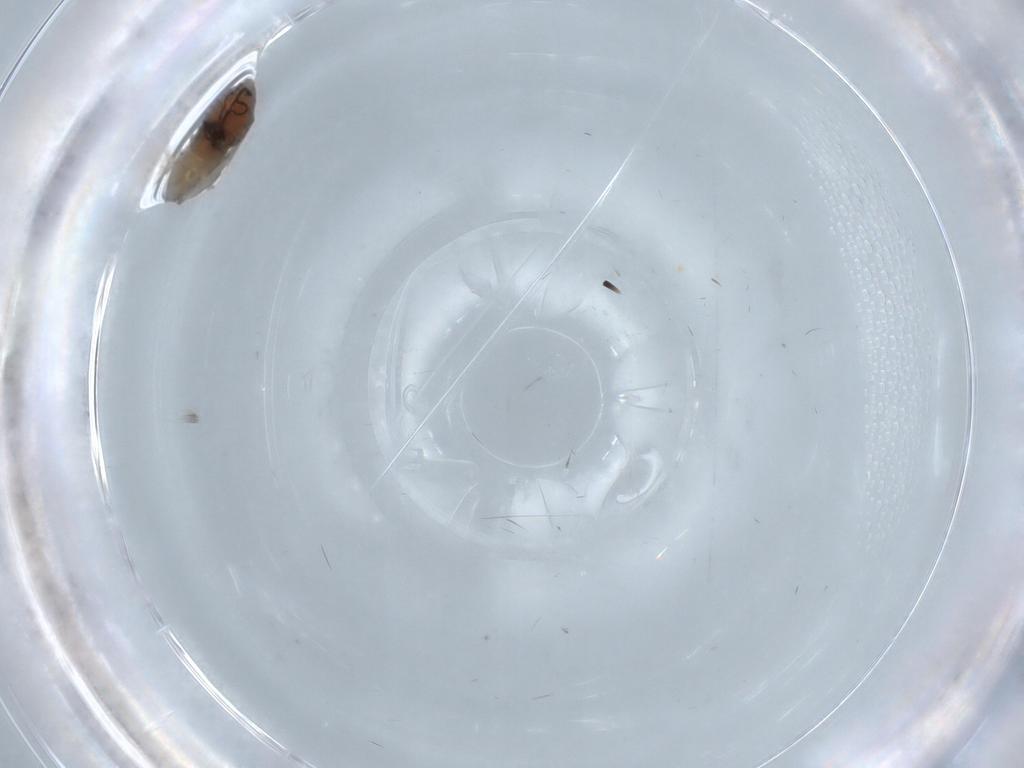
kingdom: Animalia
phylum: Arthropoda
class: Insecta
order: Diptera
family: Psychodidae
